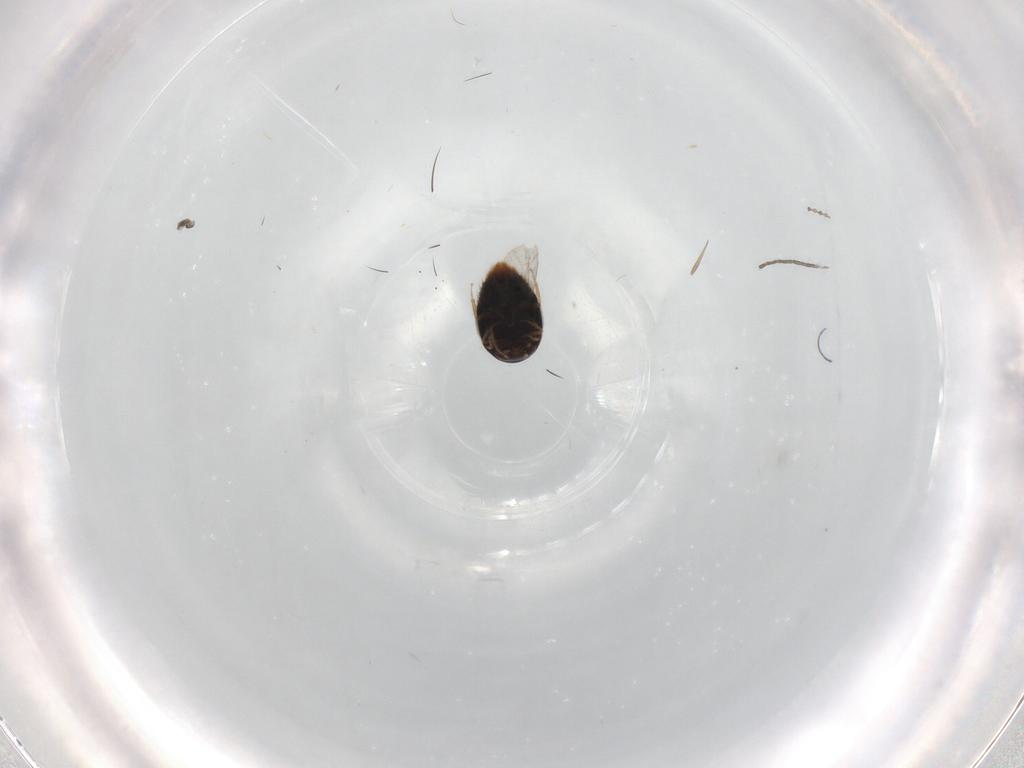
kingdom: Animalia
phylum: Arthropoda
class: Insecta
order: Coleoptera
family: Staphylinidae
